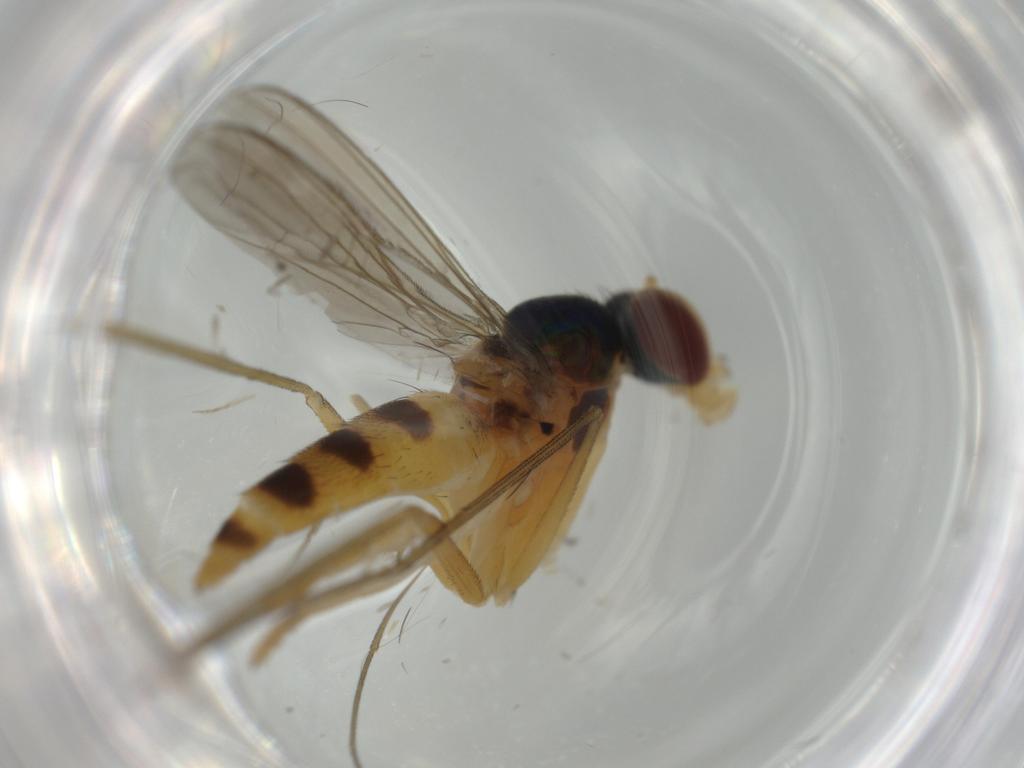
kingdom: Animalia
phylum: Arthropoda
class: Insecta
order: Diptera
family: Dolichopodidae
